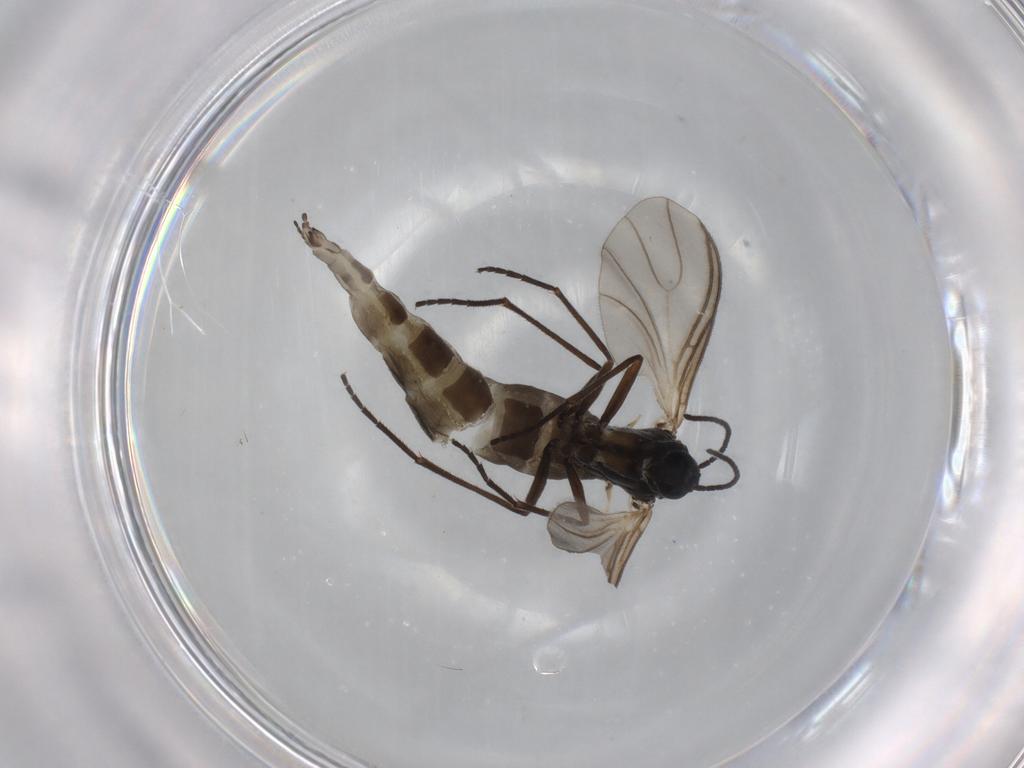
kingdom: Animalia
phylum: Arthropoda
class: Insecta
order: Diptera
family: Sciaridae
